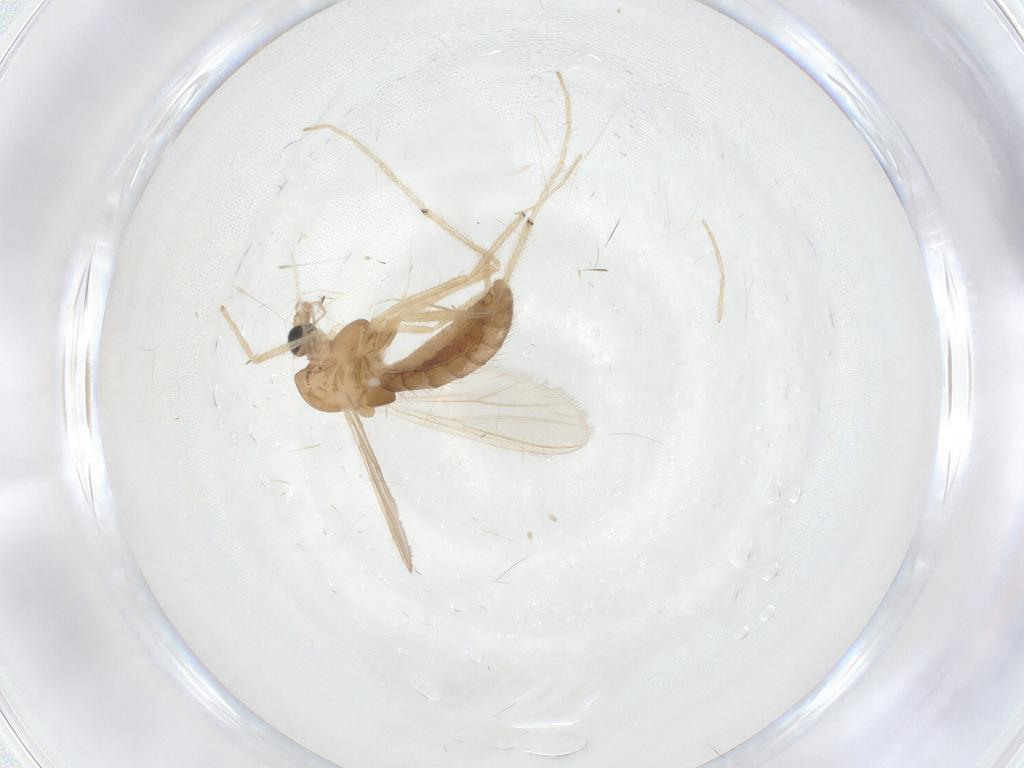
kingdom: Animalia
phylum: Arthropoda
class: Insecta
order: Diptera
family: Chironomidae
